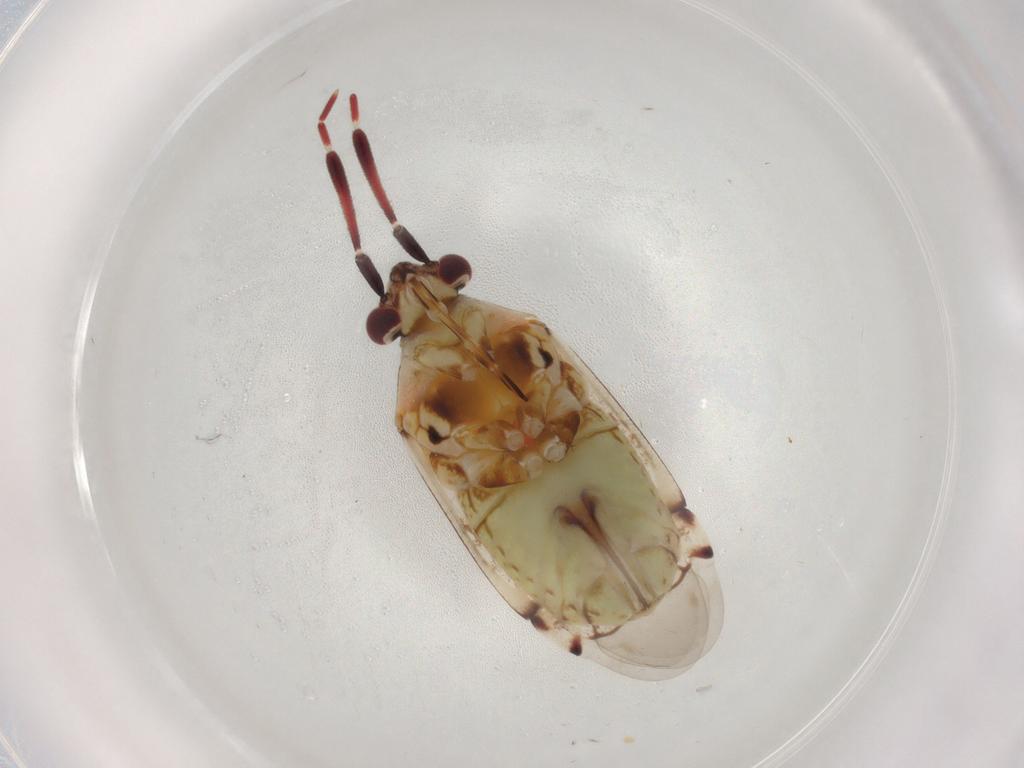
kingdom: Animalia
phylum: Arthropoda
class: Insecta
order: Hemiptera
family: Miridae
